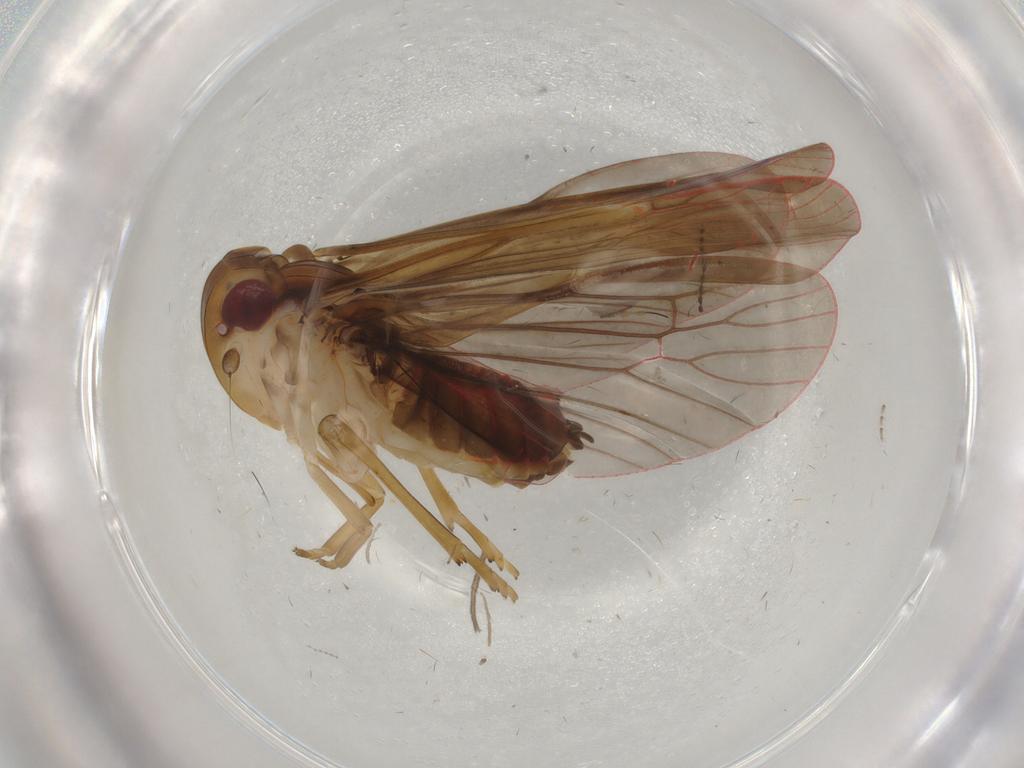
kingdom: Animalia
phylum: Arthropoda
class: Insecta
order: Hemiptera
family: Achilidae
